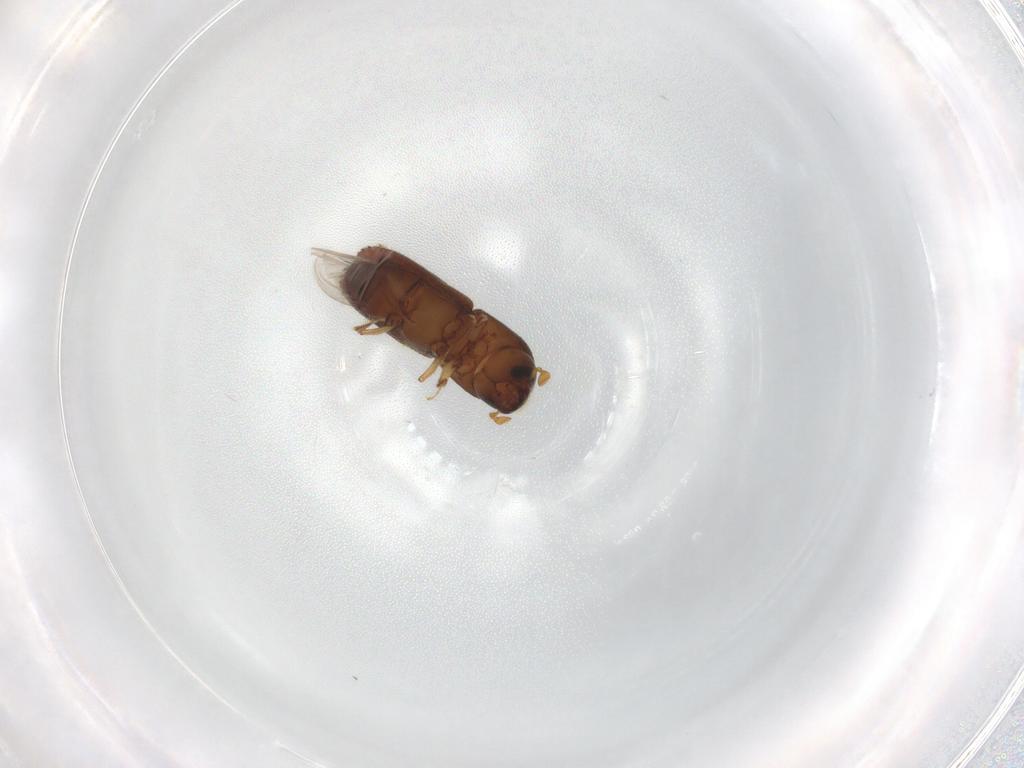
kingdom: Animalia
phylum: Arthropoda
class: Insecta
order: Coleoptera
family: Curculionidae
